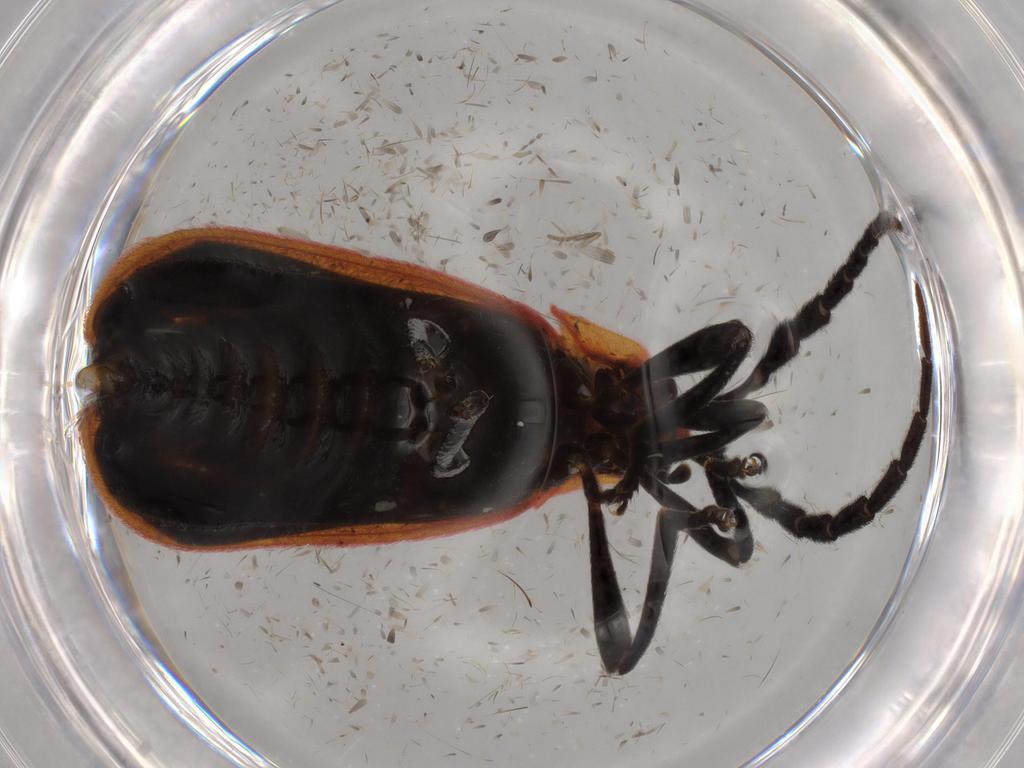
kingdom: Animalia
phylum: Arthropoda
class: Insecta
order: Coleoptera
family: Lycidae
